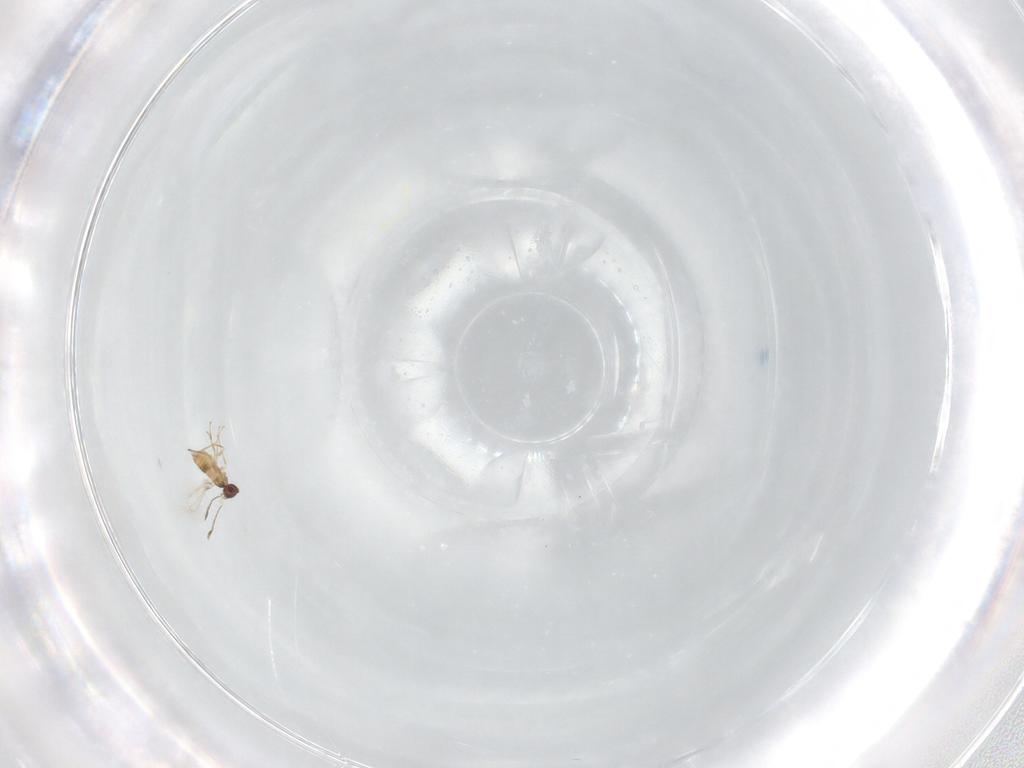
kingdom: Animalia
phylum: Arthropoda
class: Insecta
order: Hymenoptera
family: Mymaridae
